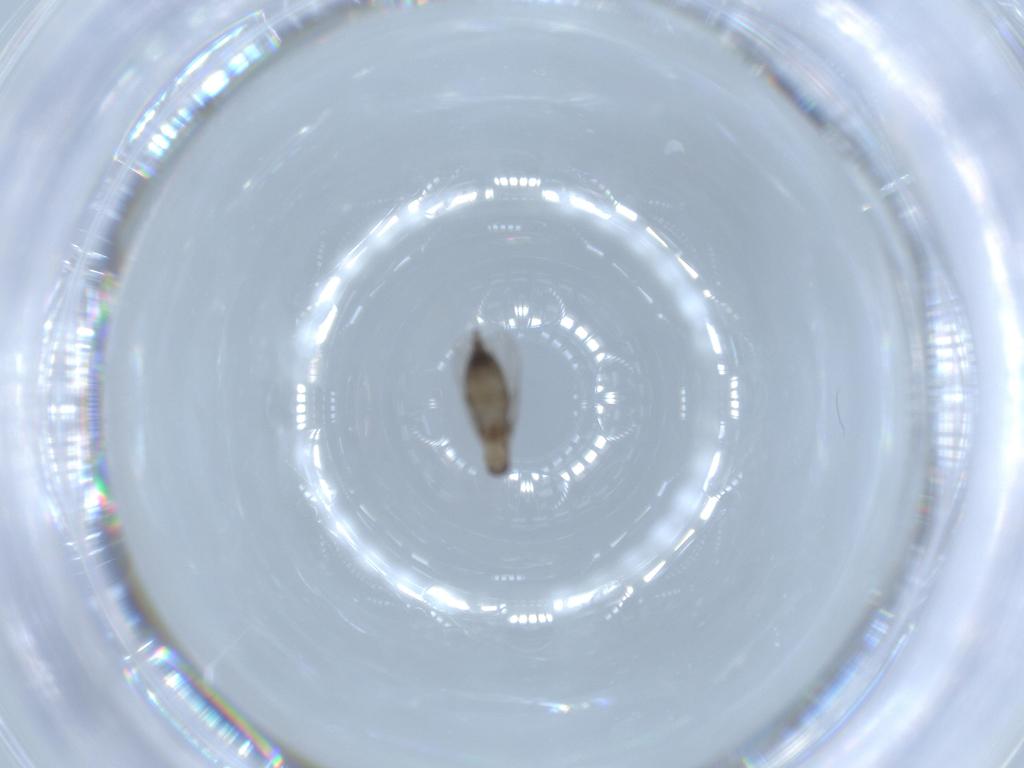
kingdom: Animalia
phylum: Arthropoda
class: Insecta
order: Diptera
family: Phoridae
